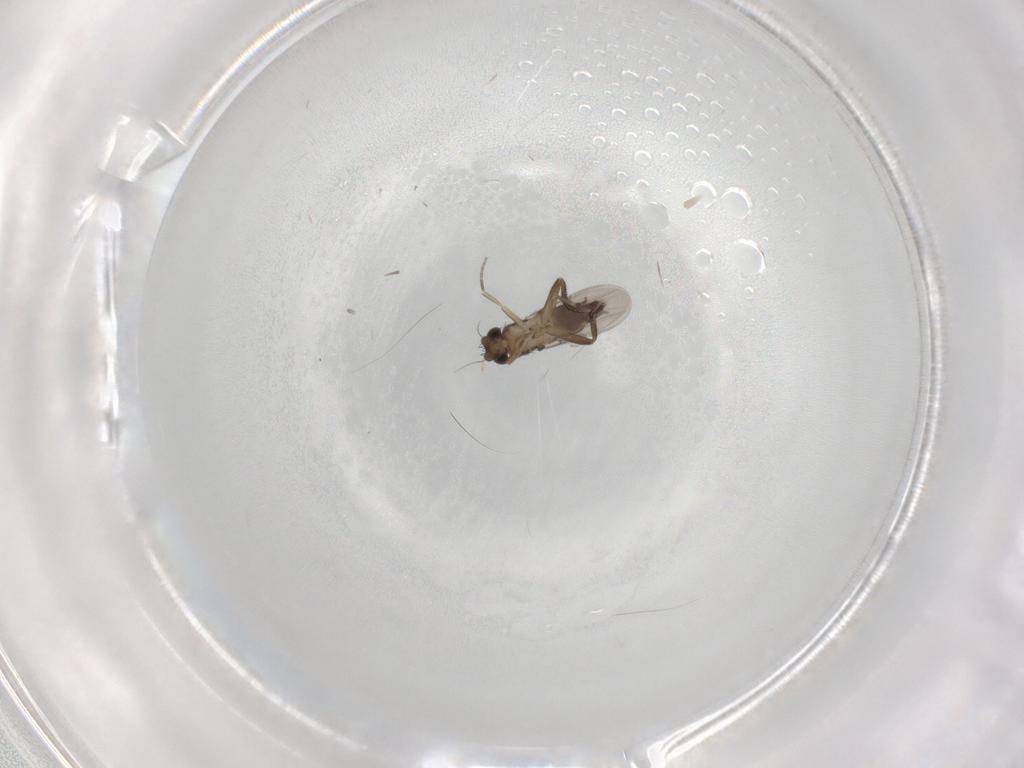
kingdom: Animalia
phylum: Arthropoda
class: Insecta
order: Diptera
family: Phoridae
